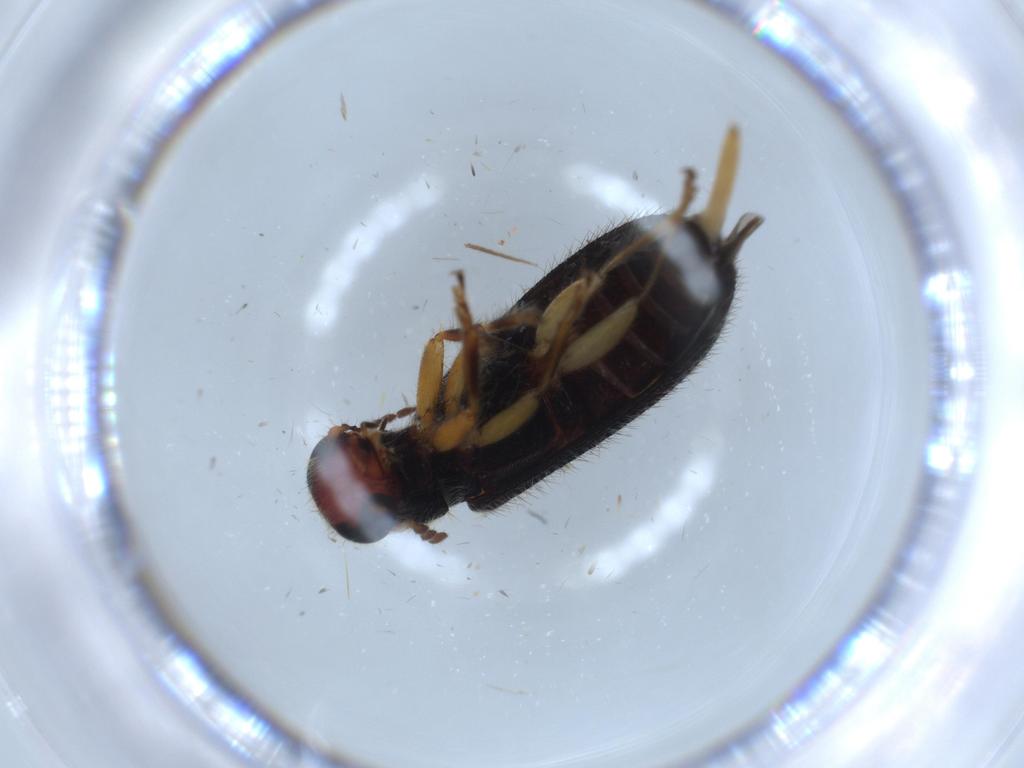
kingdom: Animalia
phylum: Arthropoda
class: Insecta
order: Coleoptera
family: Cleridae
